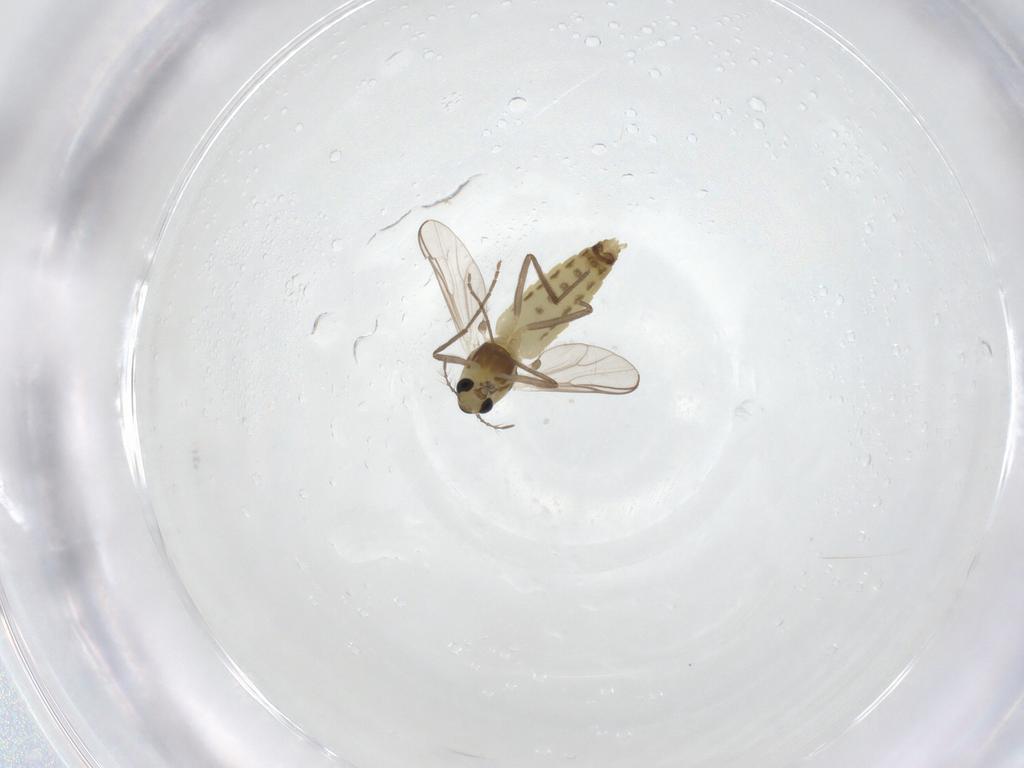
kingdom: Animalia
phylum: Arthropoda
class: Insecta
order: Diptera
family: Chironomidae
